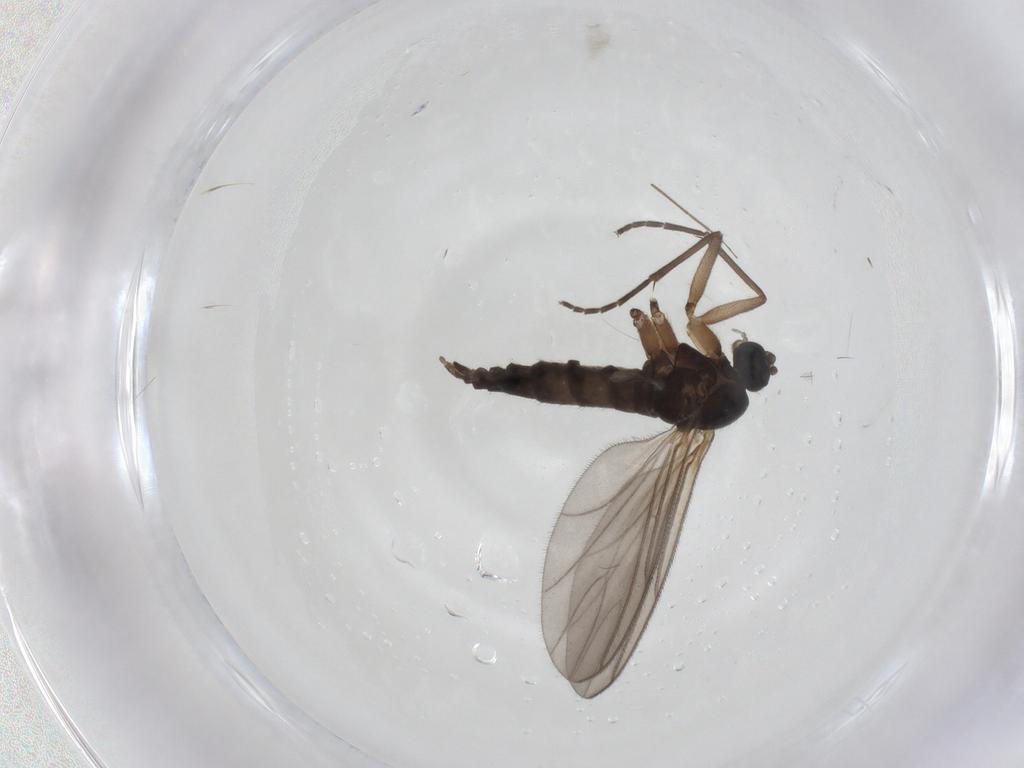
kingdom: Animalia
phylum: Arthropoda
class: Insecta
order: Diptera
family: Sciaridae
